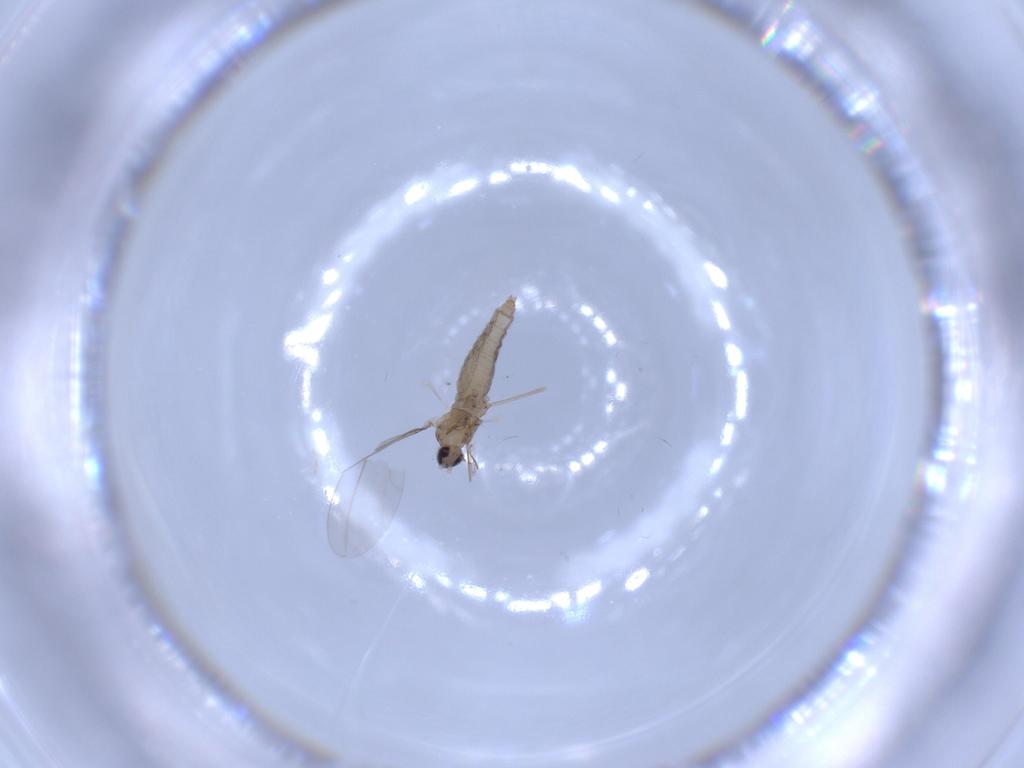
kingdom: Animalia
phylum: Arthropoda
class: Insecta
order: Diptera
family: Cecidomyiidae
